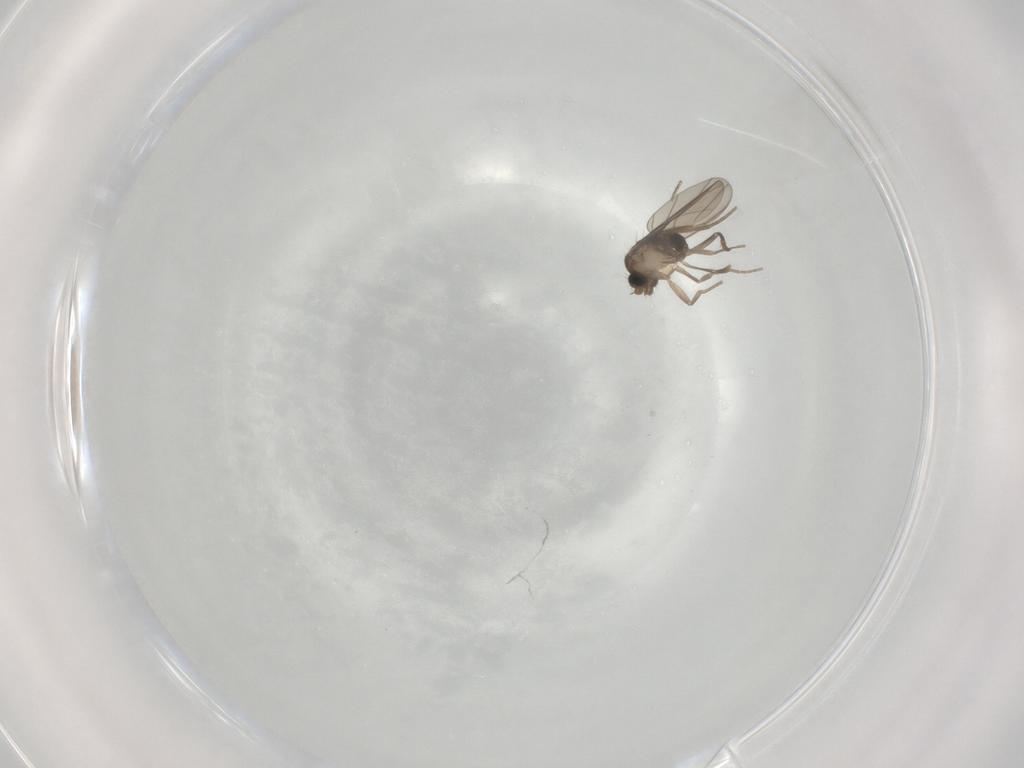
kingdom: Animalia
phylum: Arthropoda
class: Insecta
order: Diptera
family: Phoridae
